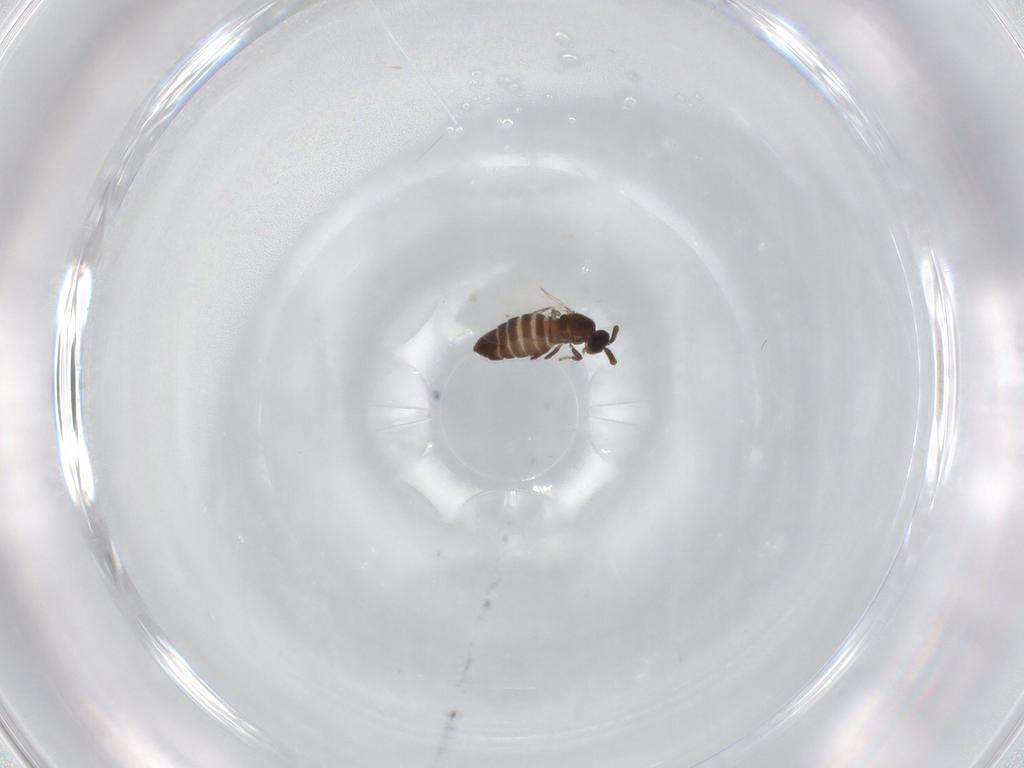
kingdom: Animalia
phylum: Arthropoda
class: Insecta
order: Diptera
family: Scatopsidae
